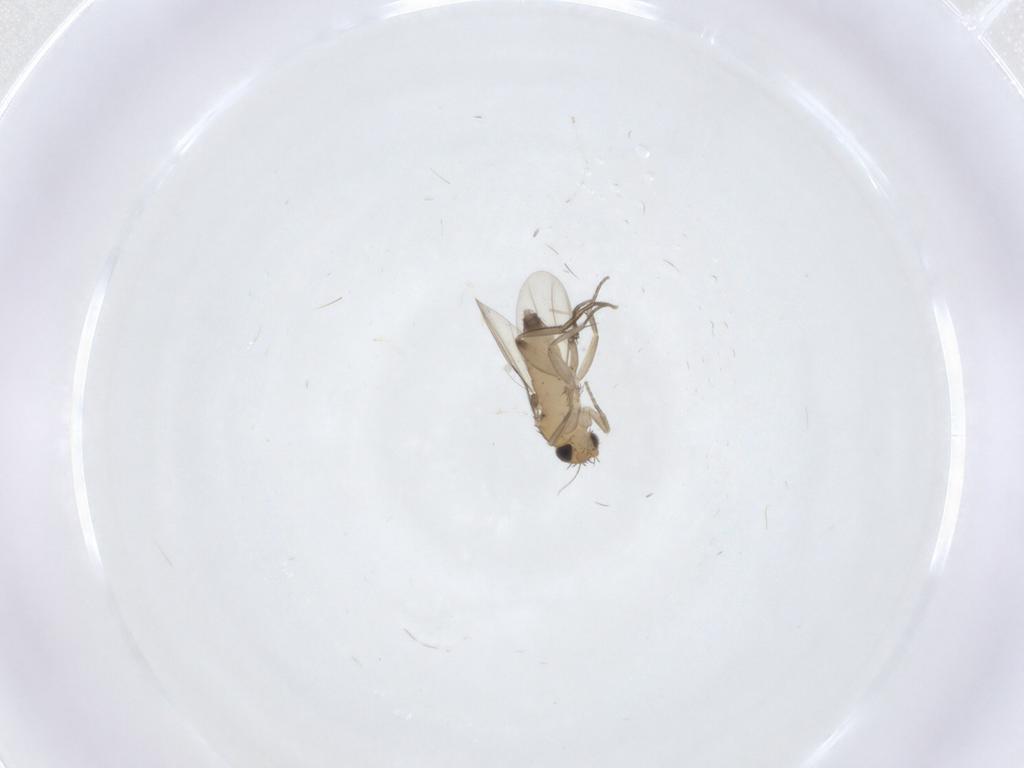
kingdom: Animalia
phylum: Arthropoda
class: Insecta
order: Diptera
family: Phoridae
